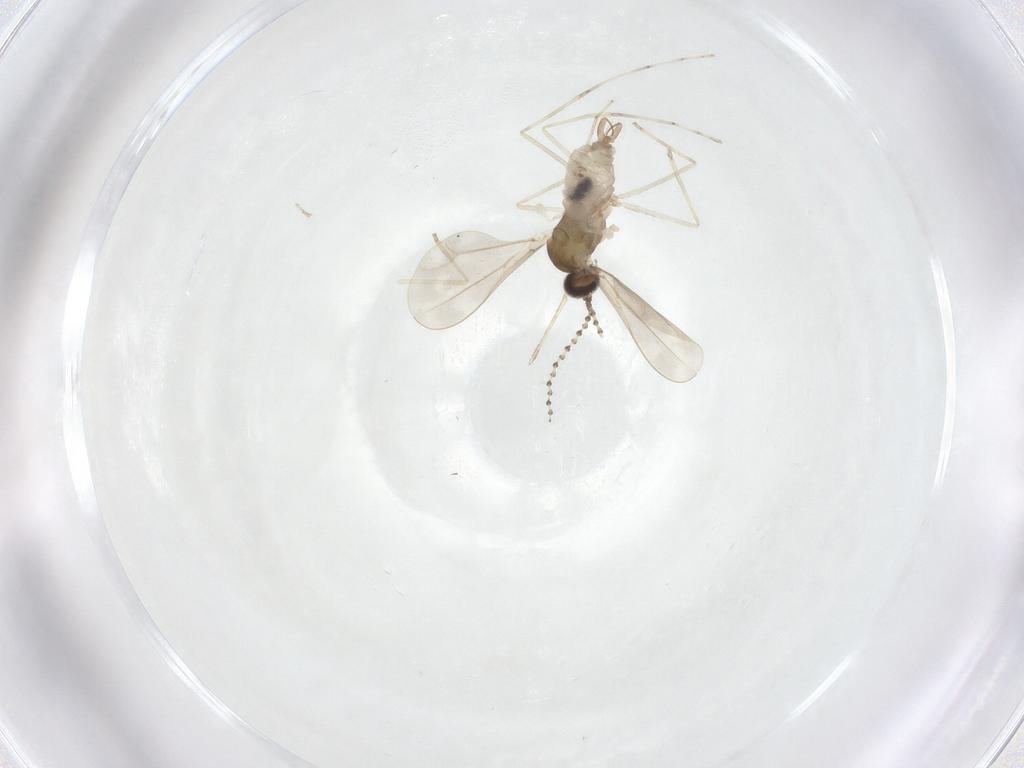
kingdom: Animalia
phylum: Arthropoda
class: Insecta
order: Diptera
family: Cecidomyiidae
